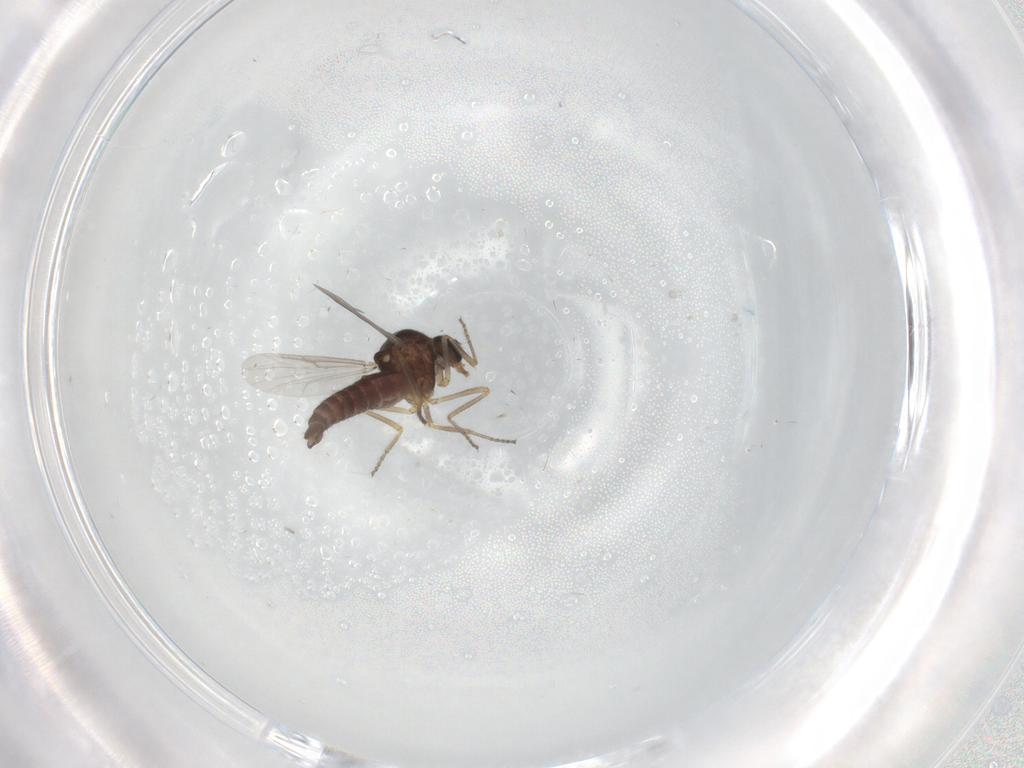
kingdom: Animalia
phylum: Arthropoda
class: Insecta
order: Diptera
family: Ceratopogonidae
